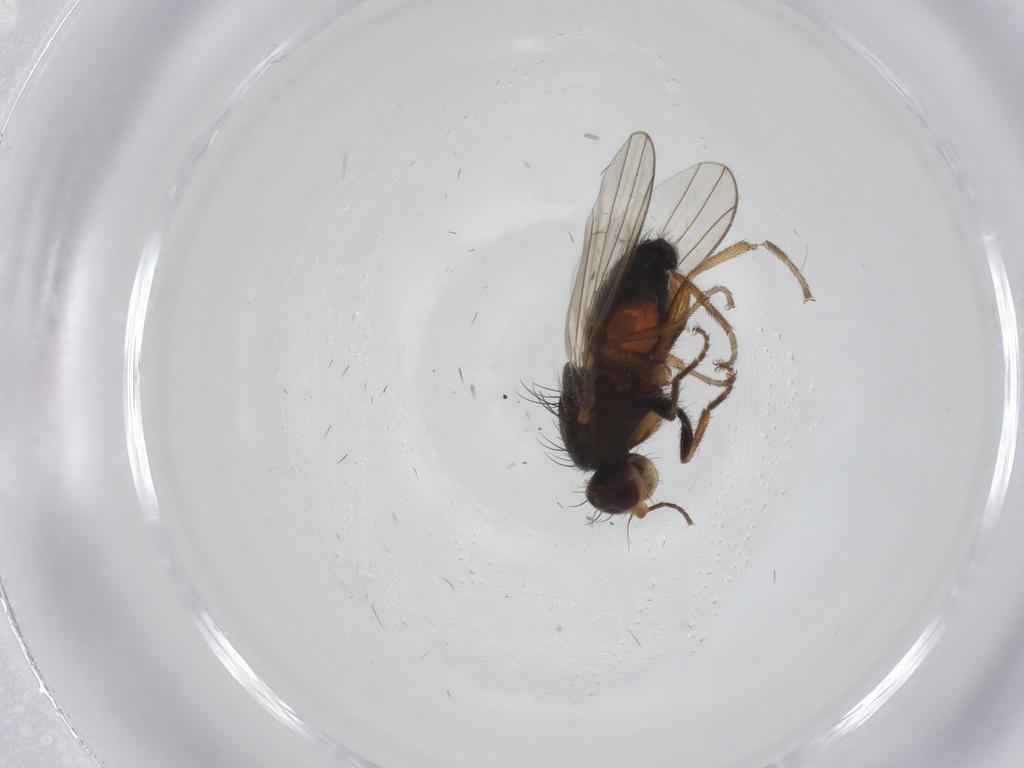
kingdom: Animalia
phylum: Arthropoda
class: Insecta
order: Diptera
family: Heleomyzidae
